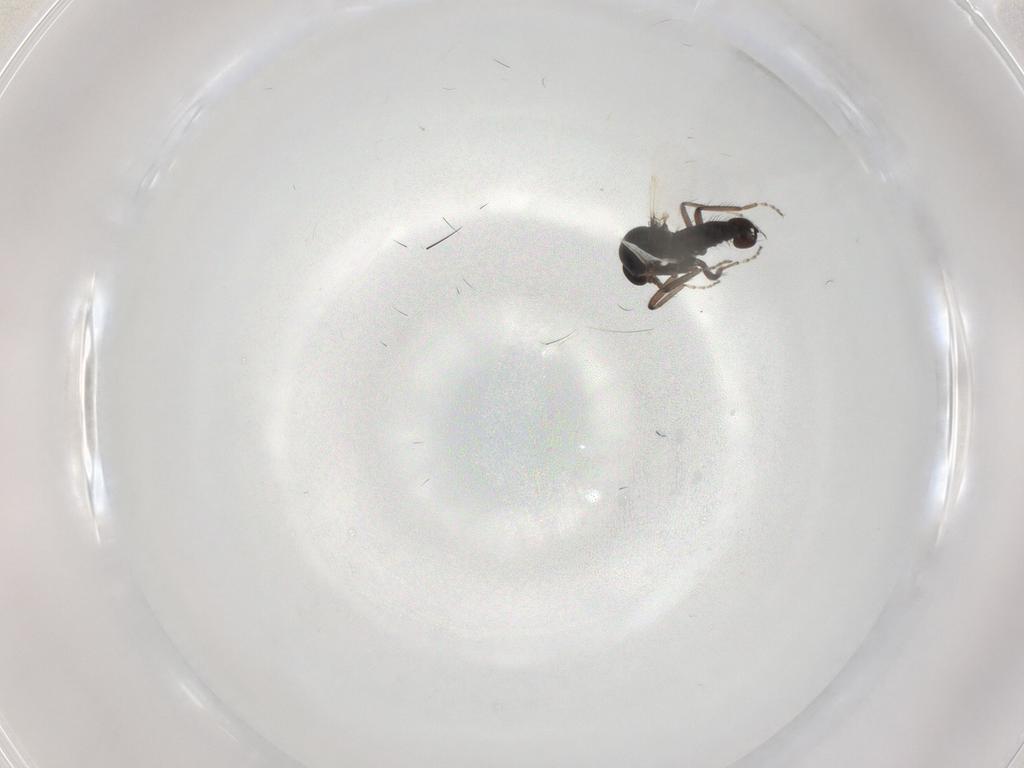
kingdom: Animalia
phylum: Arthropoda
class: Insecta
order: Diptera
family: Ceratopogonidae
